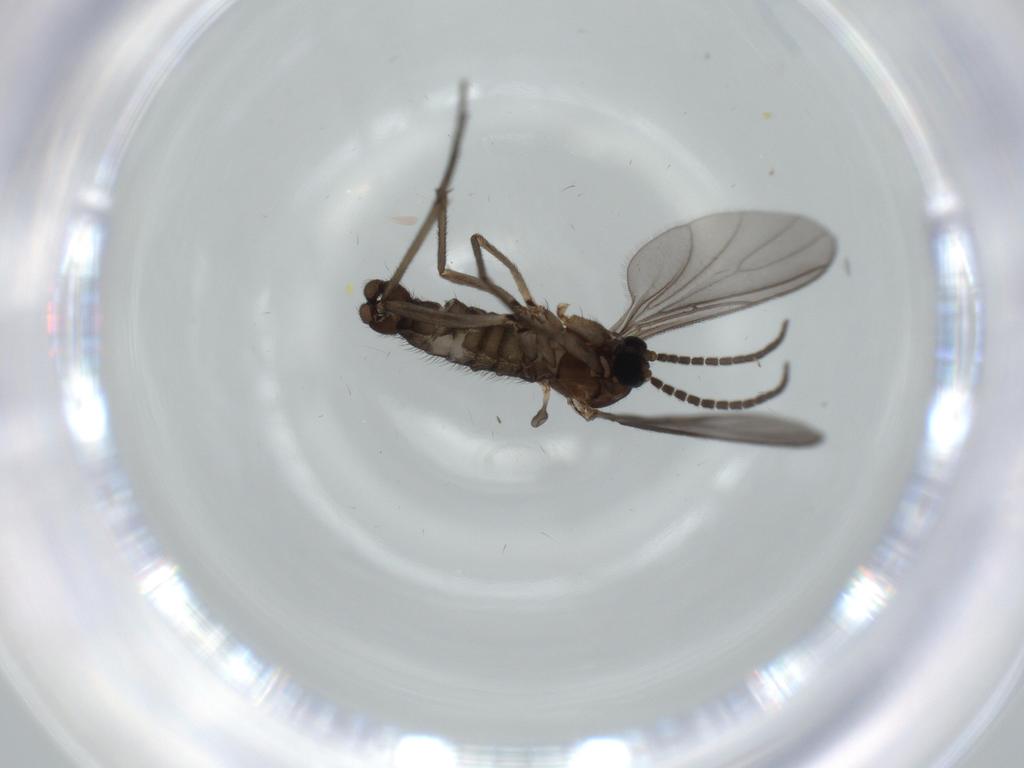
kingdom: Animalia
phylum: Arthropoda
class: Insecta
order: Diptera
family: Sciaridae
